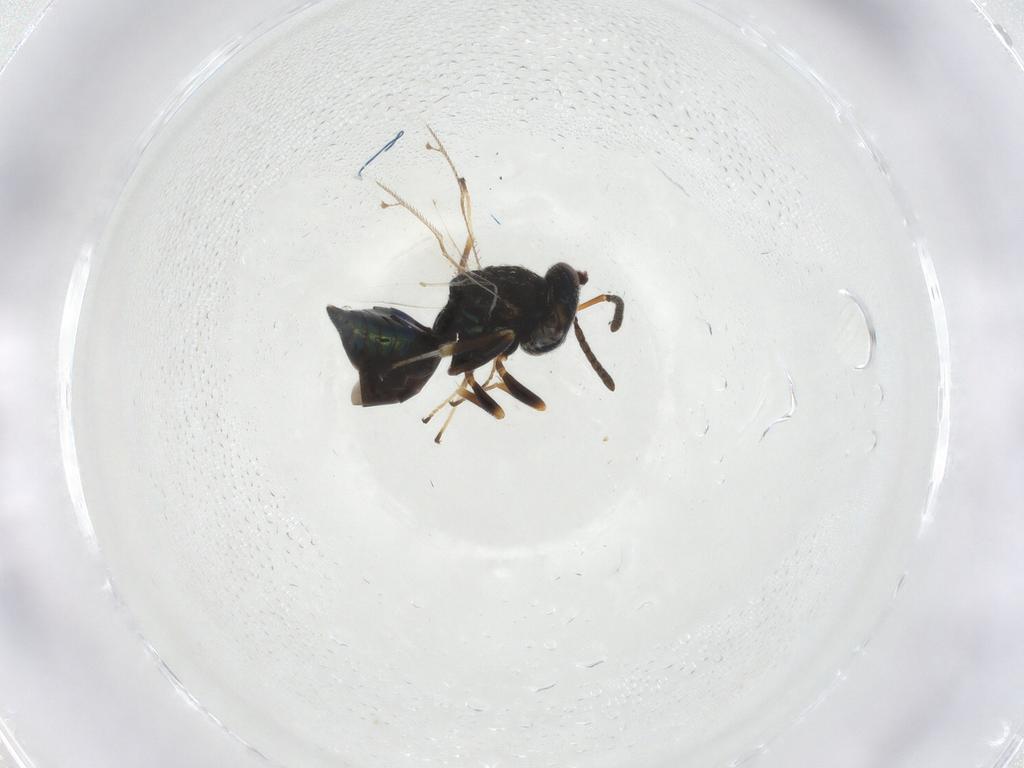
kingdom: Animalia
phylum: Arthropoda
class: Insecta
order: Hymenoptera
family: Pteromalidae
